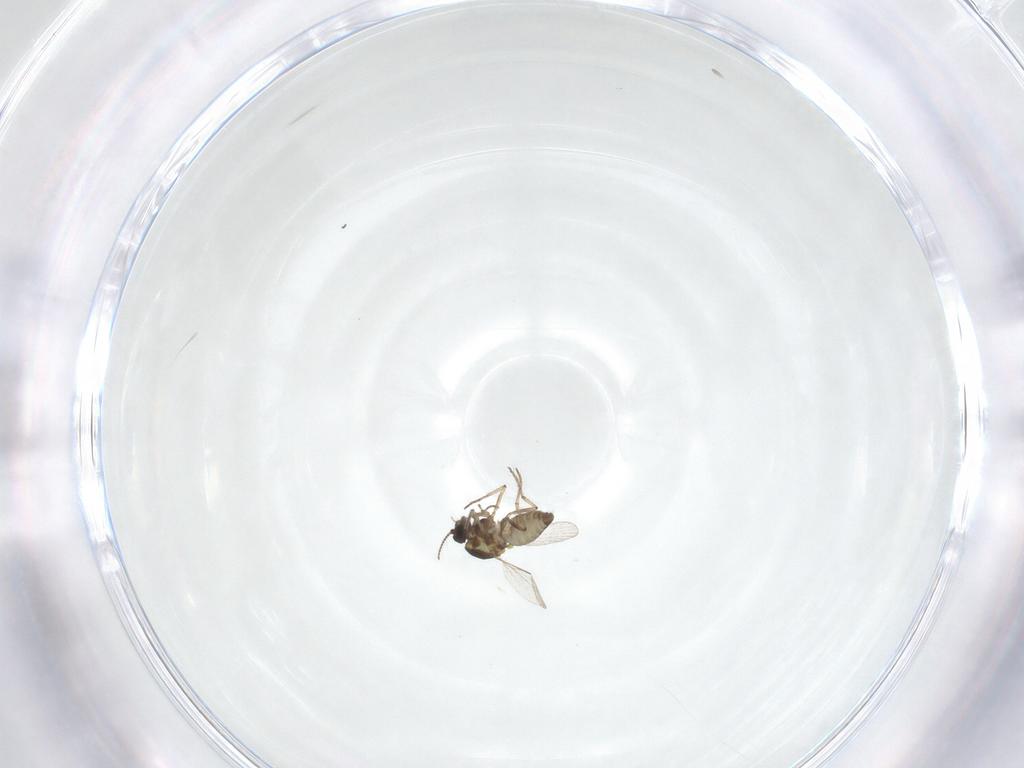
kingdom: Animalia
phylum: Arthropoda
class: Insecta
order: Diptera
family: Ceratopogonidae
